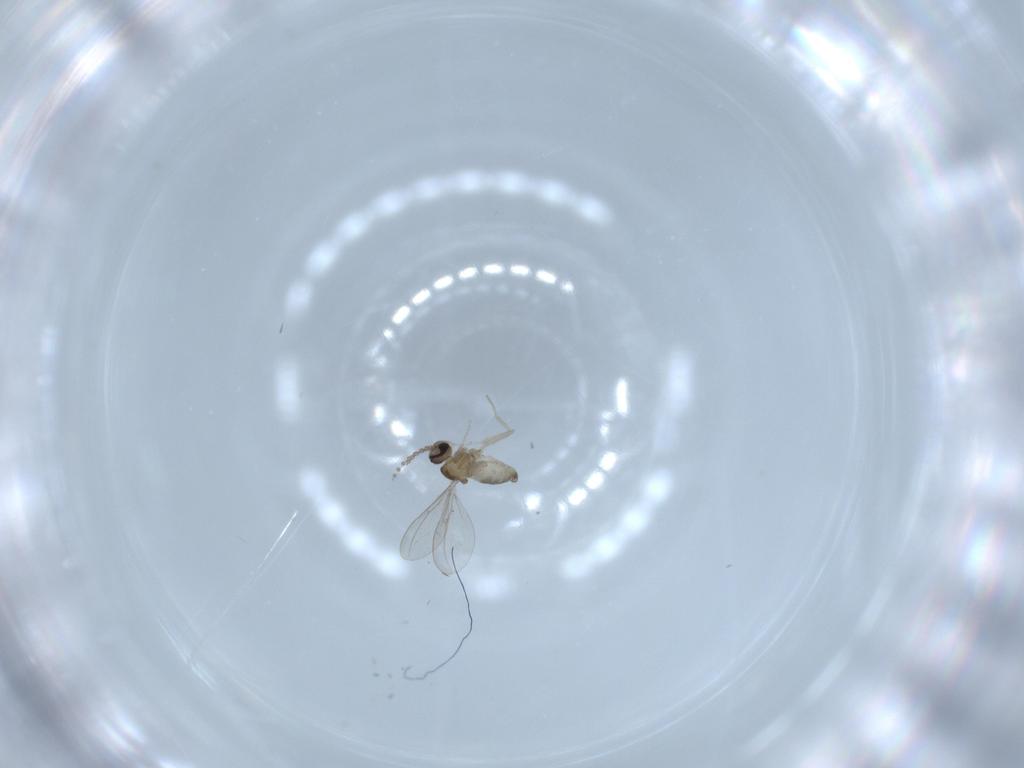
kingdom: Animalia
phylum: Arthropoda
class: Insecta
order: Diptera
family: Cecidomyiidae
